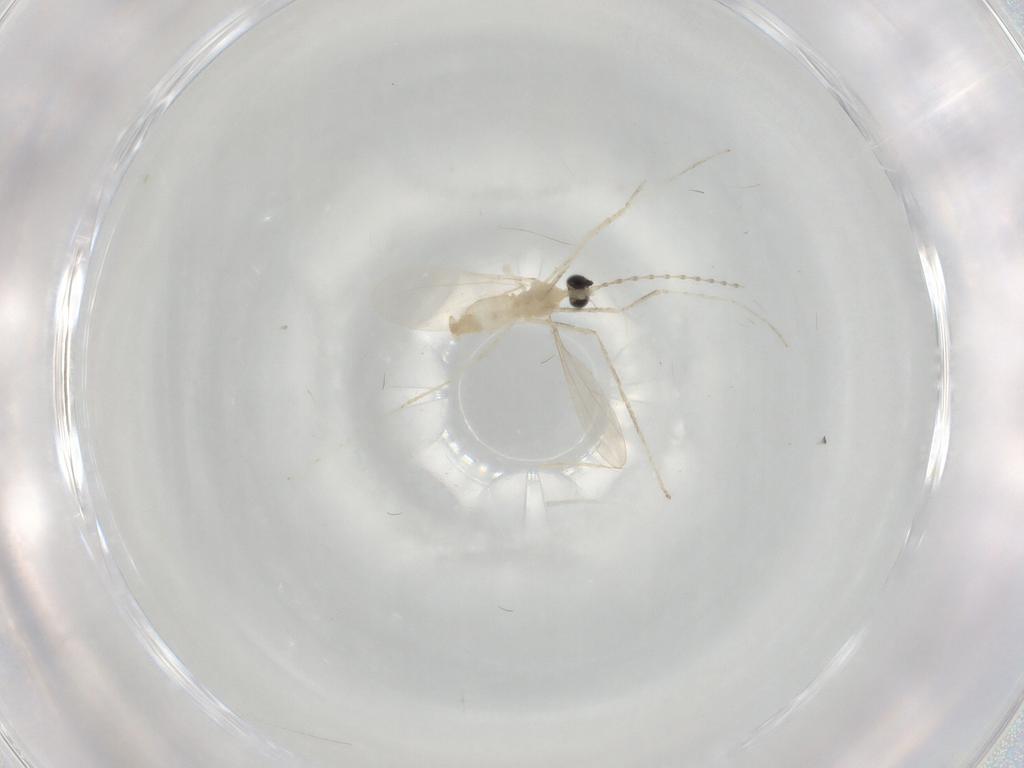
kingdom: Animalia
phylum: Arthropoda
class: Insecta
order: Diptera
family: Cecidomyiidae
